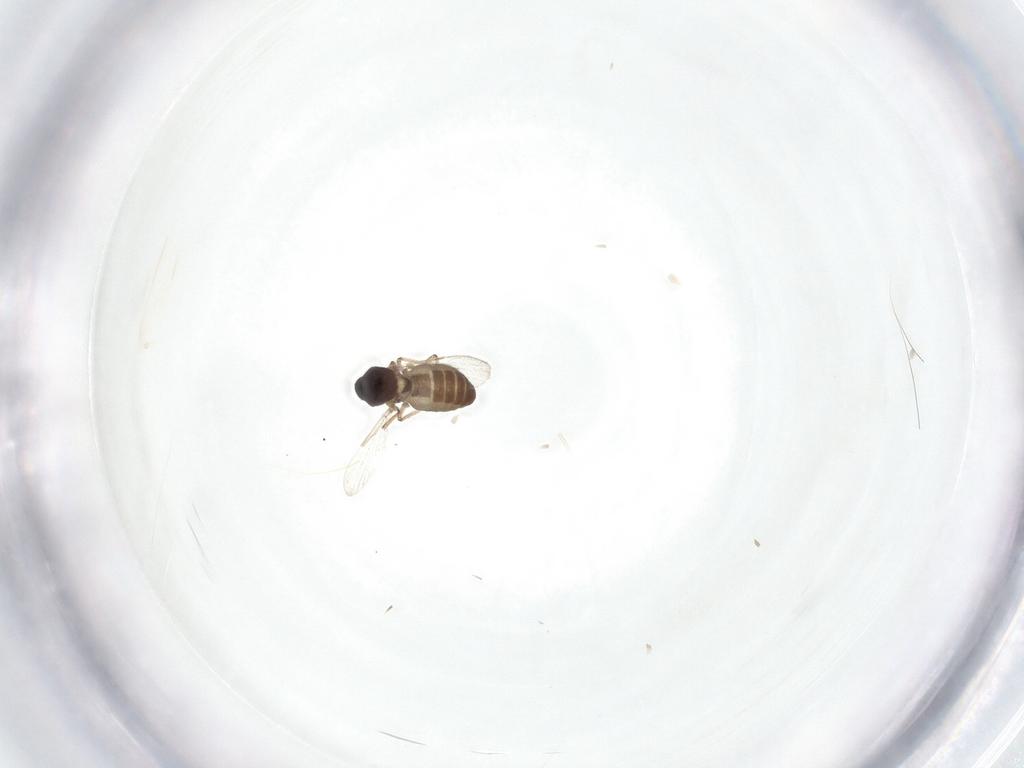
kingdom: Animalia
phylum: Arthropoda
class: Insecta
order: Diptera
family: Ceratopogonidae
